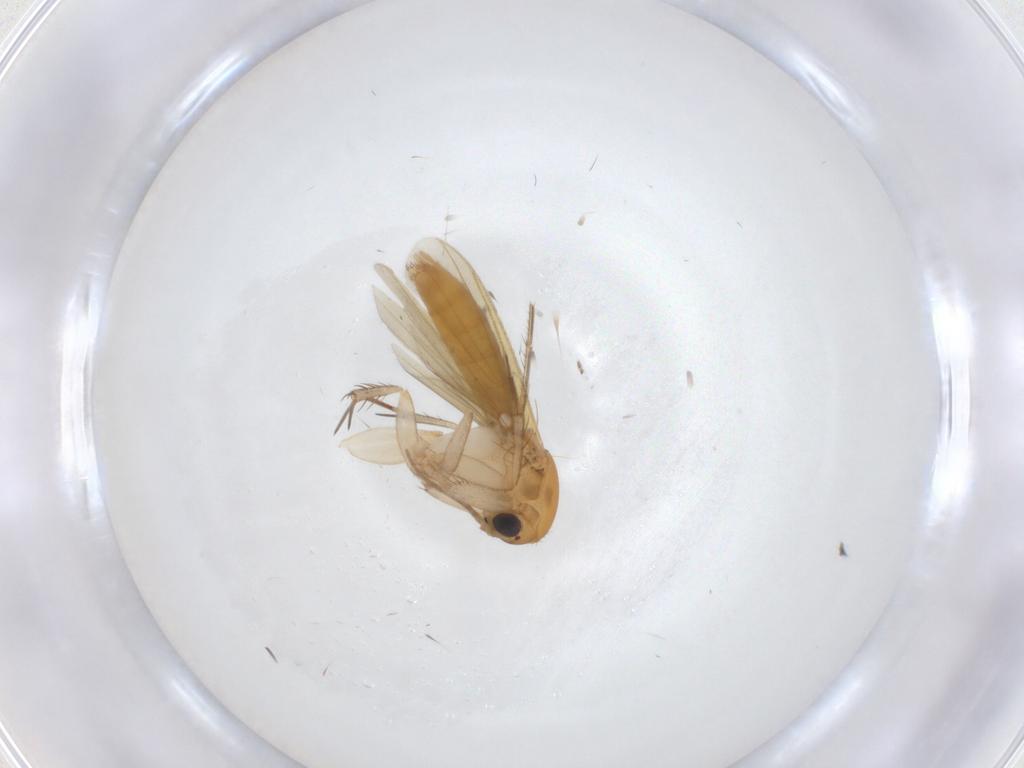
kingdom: Animalia
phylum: Arthropoda
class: Insecta
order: Diptera
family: Mycetophilidae
